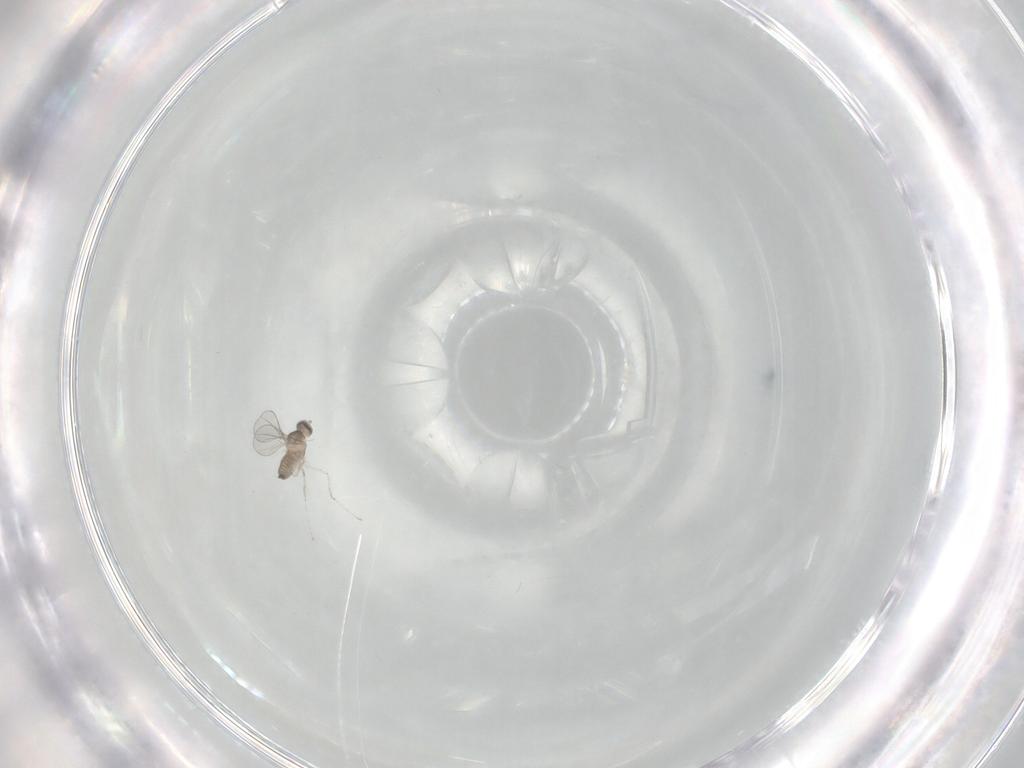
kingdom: Animalia
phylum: Arthropoda
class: Insecta
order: Diptera
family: Cecidomyiidae
